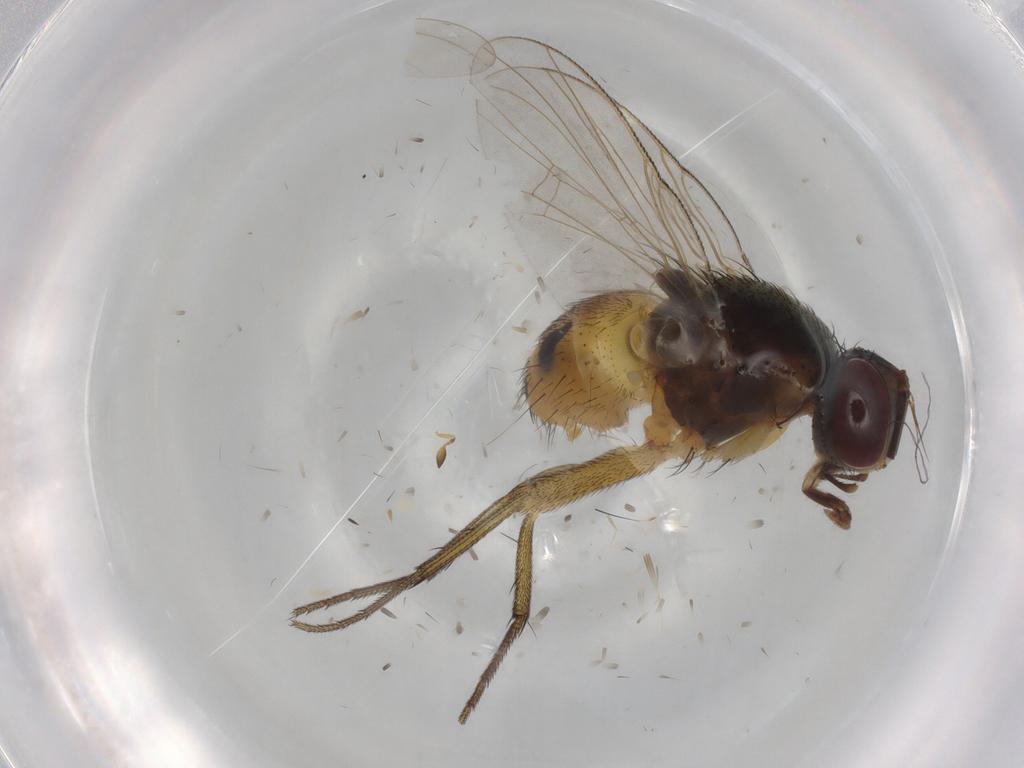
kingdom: Animalia
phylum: Arthropoda
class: Insecta
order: Diptera
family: Muscidae
